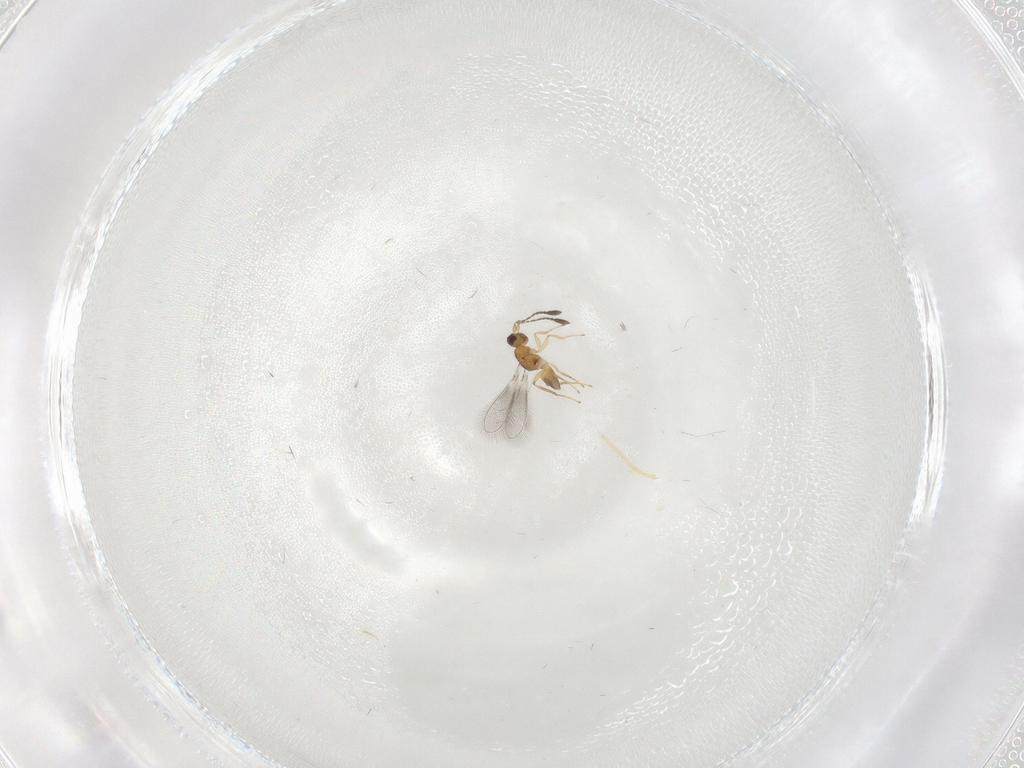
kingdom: Animalia
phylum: Arthropoda
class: Insecta
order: Hymenoptera
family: Mymaridae
